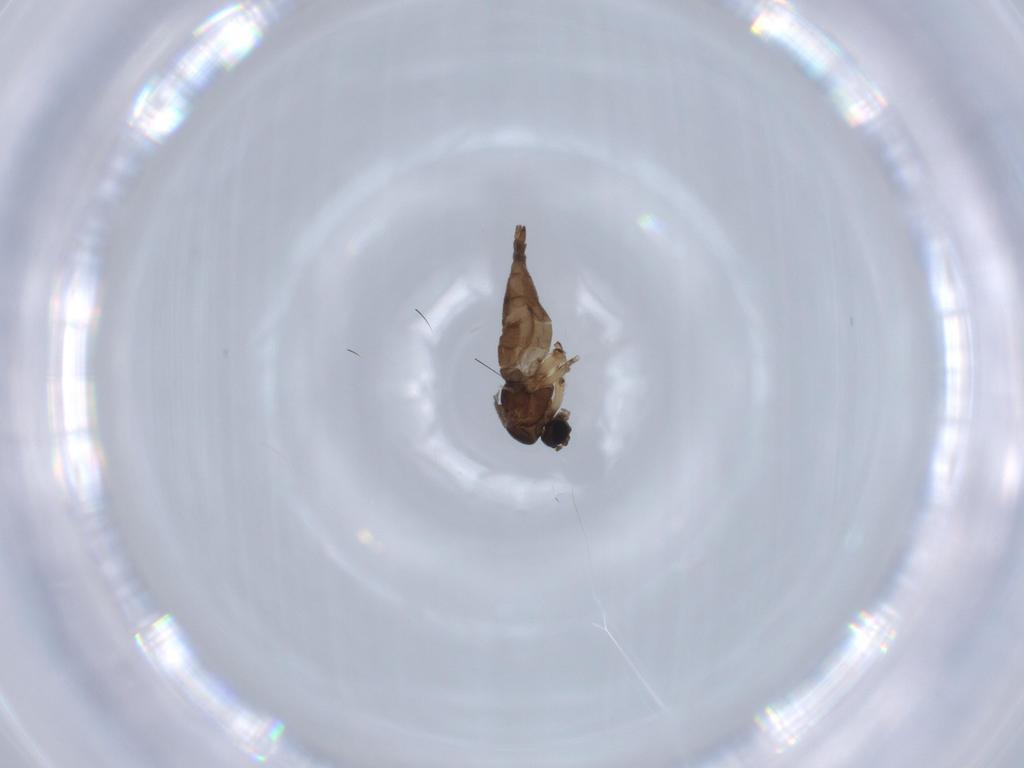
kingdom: Animalia
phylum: Arthropoda
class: Insecta
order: Diptera
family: Sciaridae
